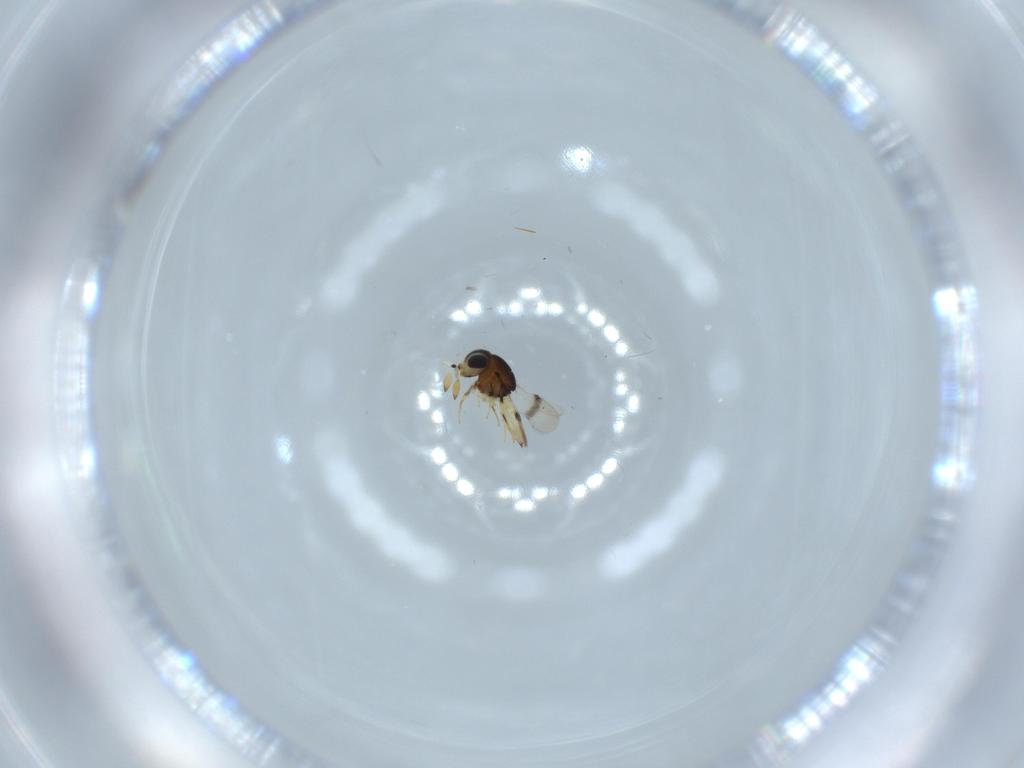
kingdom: Animalia
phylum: Arthropoda
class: Insecta
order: Hymenoptera
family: Scelionidae
